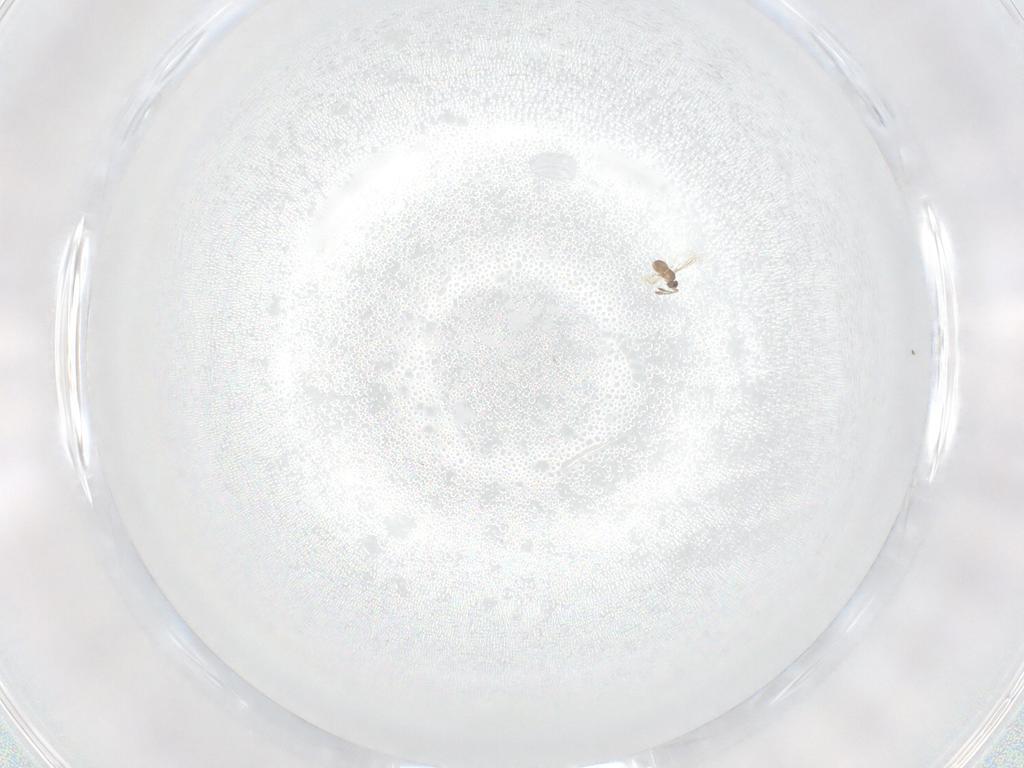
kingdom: Animalia
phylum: Arthropoda
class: Insecta
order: Hymenoptera
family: Mymaridae
